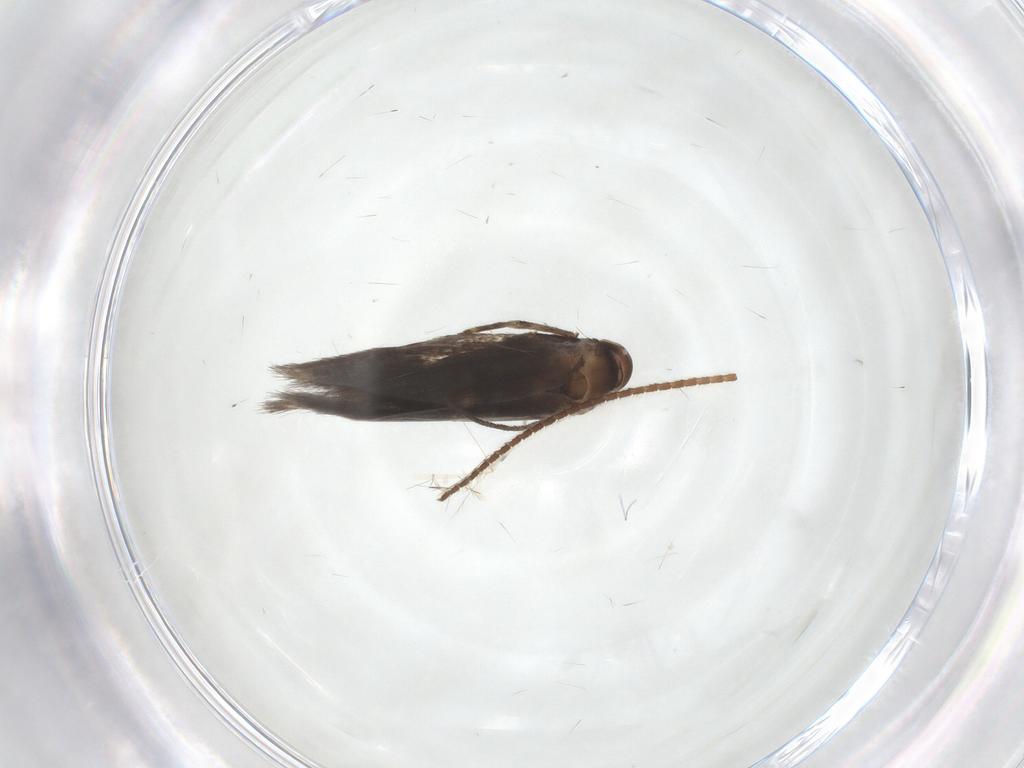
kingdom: Animalia
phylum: Arthropoda
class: Insecta
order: Lepidoptera
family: Elachistidae
